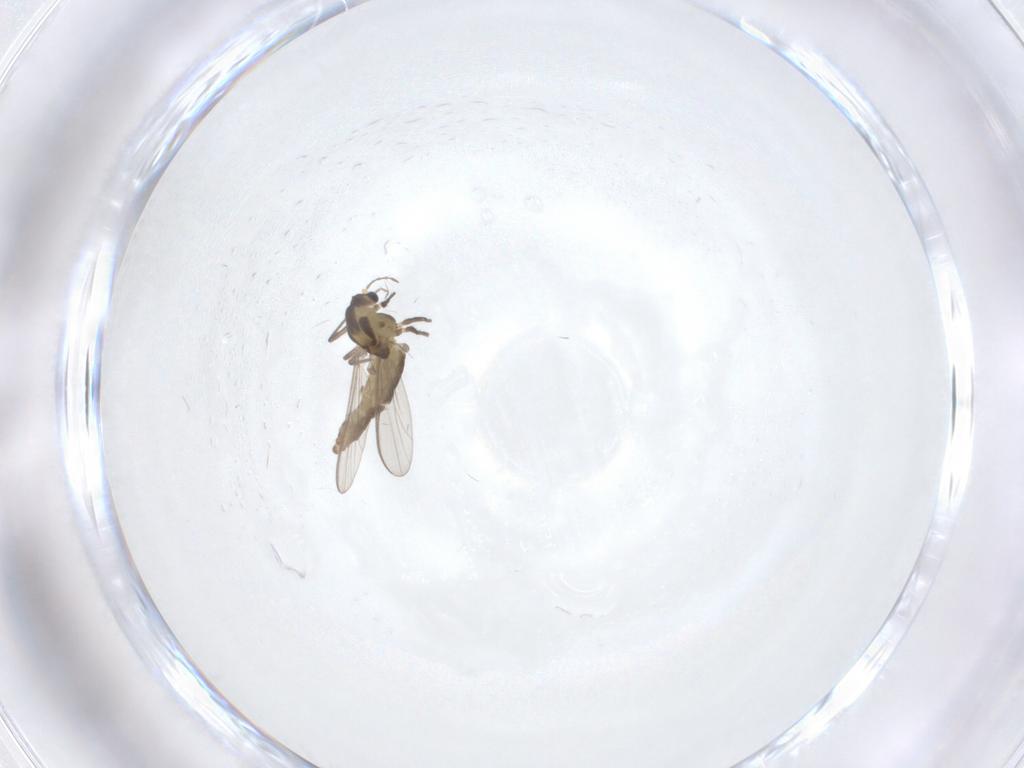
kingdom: Animalia
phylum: Arthropoda
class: Insecta
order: Diptera
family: Chironomidae
